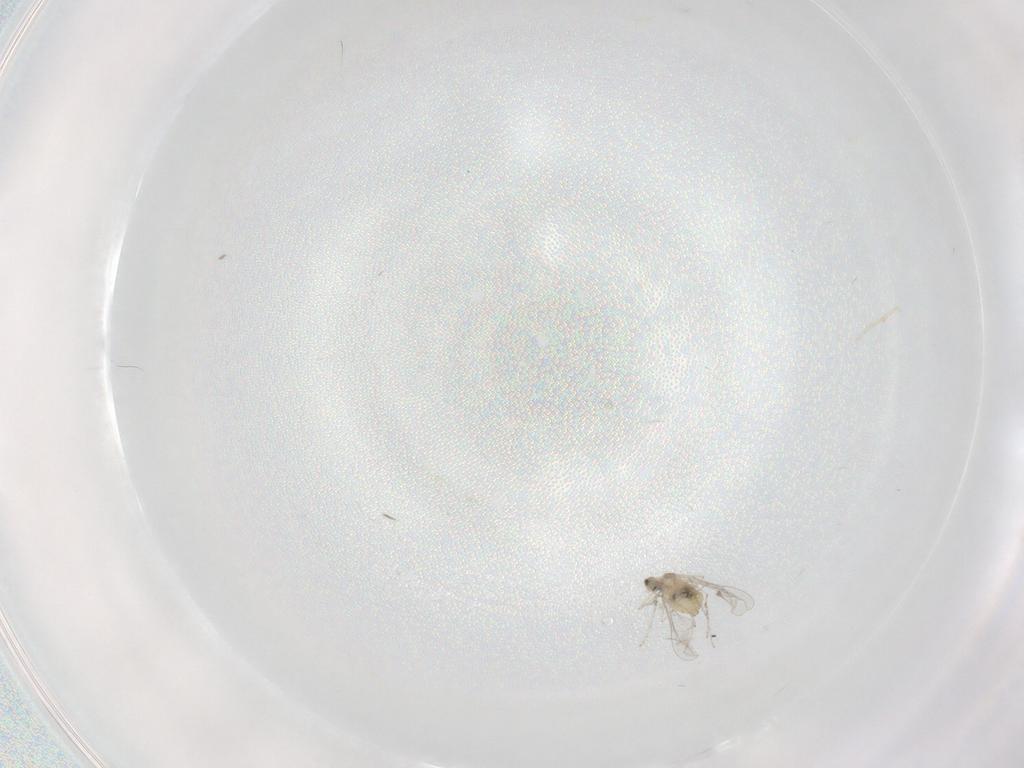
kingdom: Animalia
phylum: Arthropoda
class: Insecta
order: Diptera
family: Cecidomyiidae
